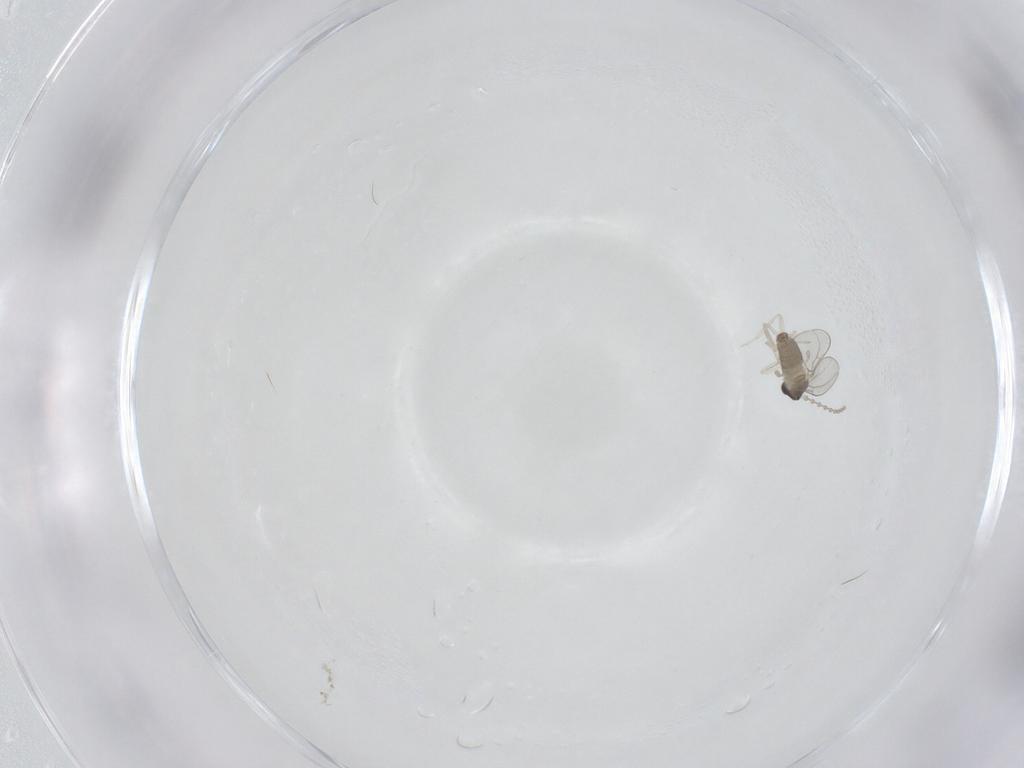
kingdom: Animalia
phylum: Arthropoda
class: Insecta
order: Diptera
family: Cecidomyiidae
